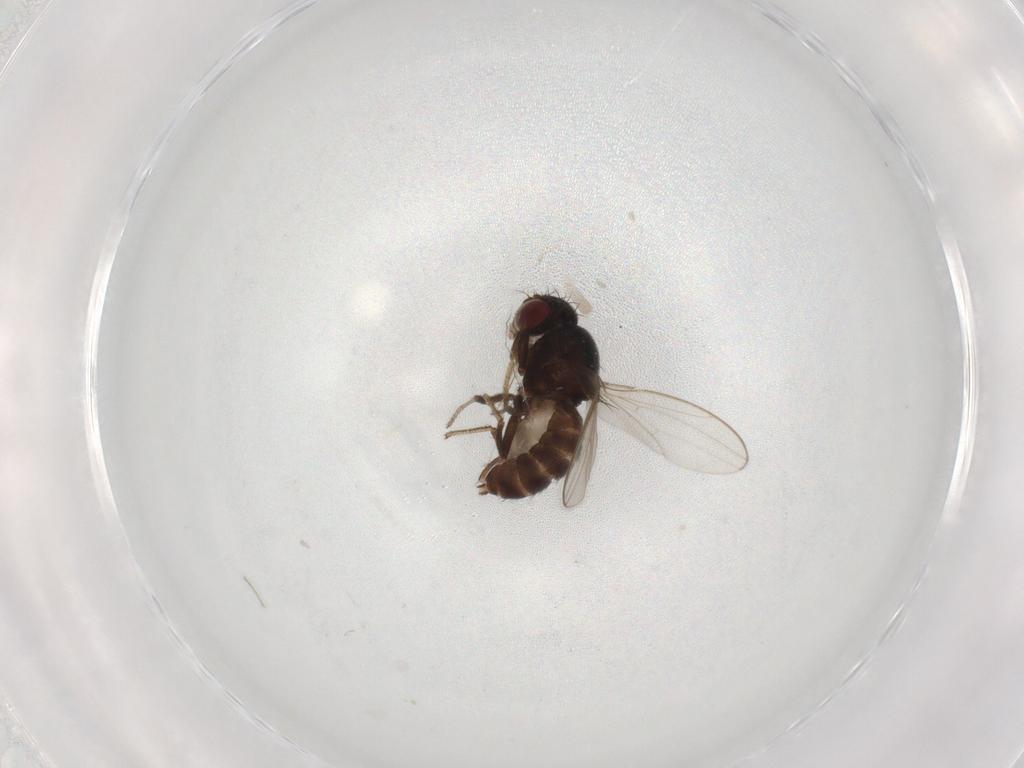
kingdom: Animalia
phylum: Arthropoda
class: Insecta
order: Diptera
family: Drosophilidae
